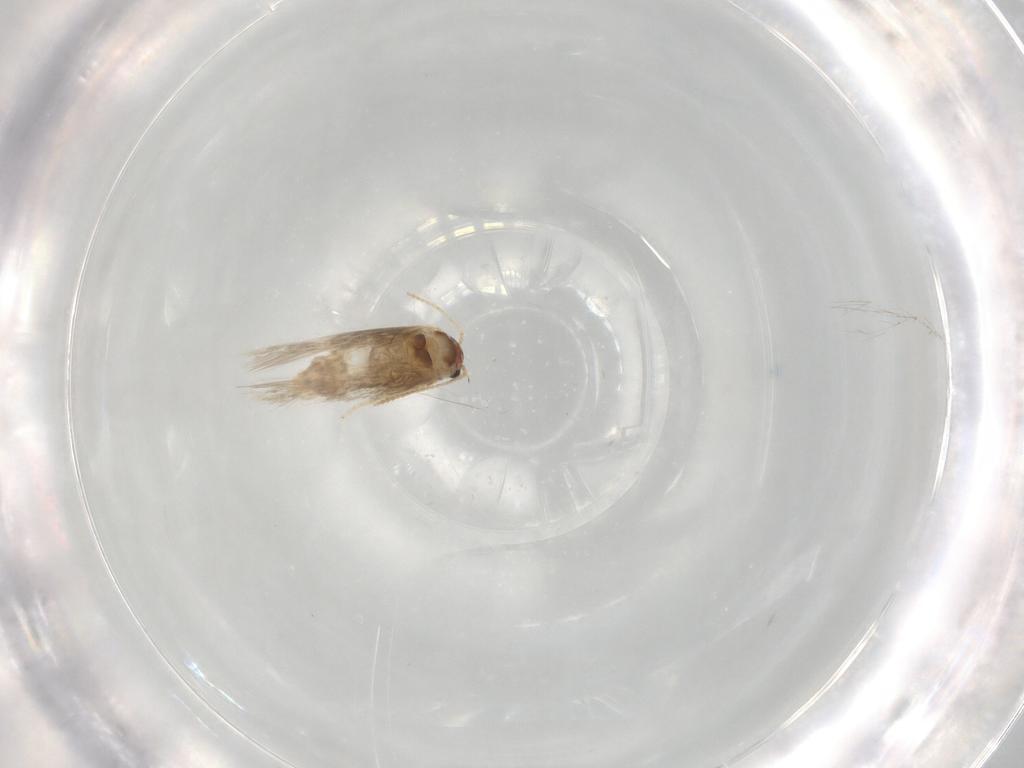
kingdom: Animalia
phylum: Arthropoda
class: Insecta
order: Lepidoptera
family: Nepticulidae
